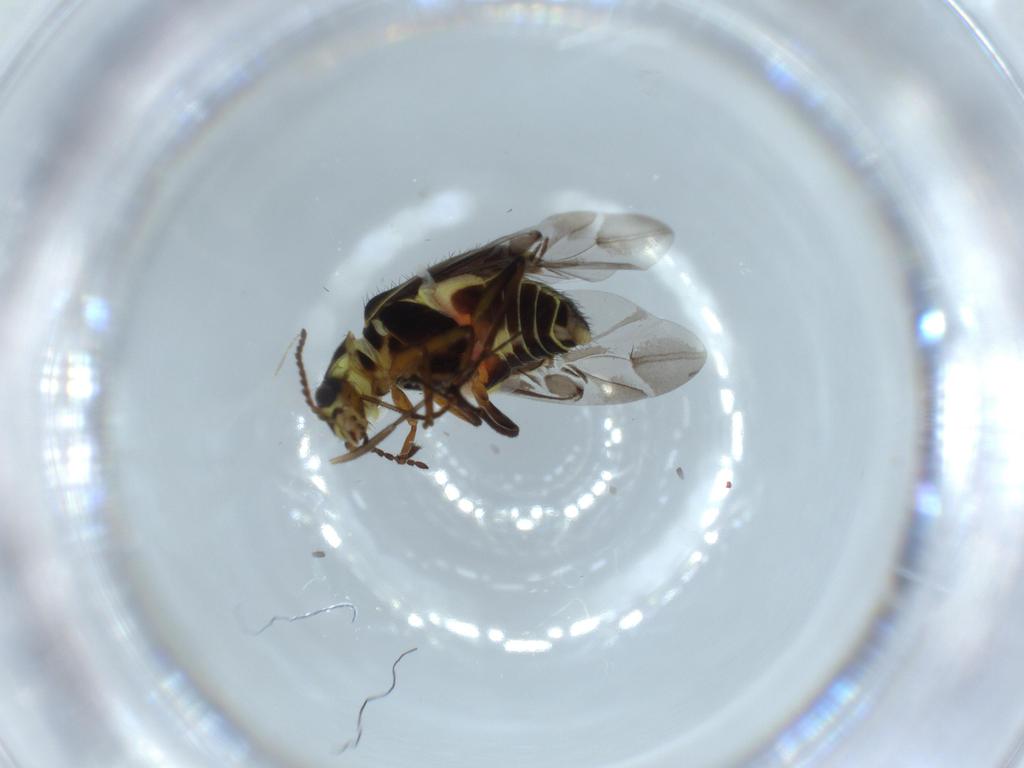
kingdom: Animalia
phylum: Arthropoda
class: Insecta
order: Coleoptera
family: Melyridae
